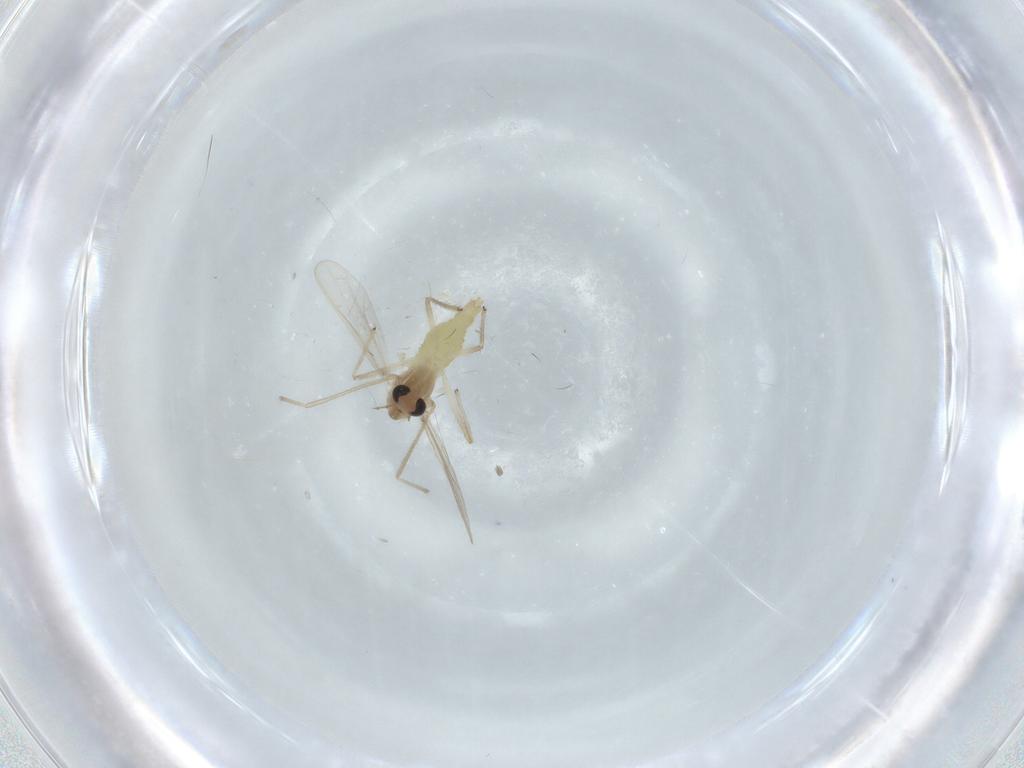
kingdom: Animalia
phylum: Arthropoda
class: Insecta
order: Diptera
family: Chironomidae
